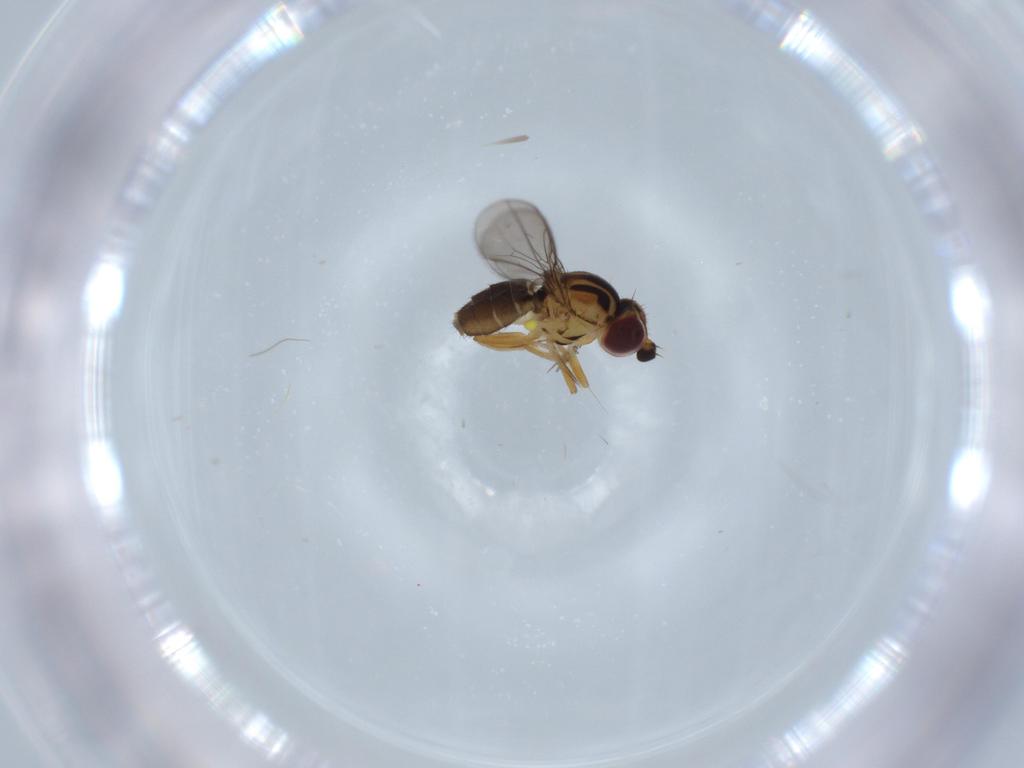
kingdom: Animalia
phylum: Arthropoda
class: Insecta
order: Diptera
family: Chloropidae
